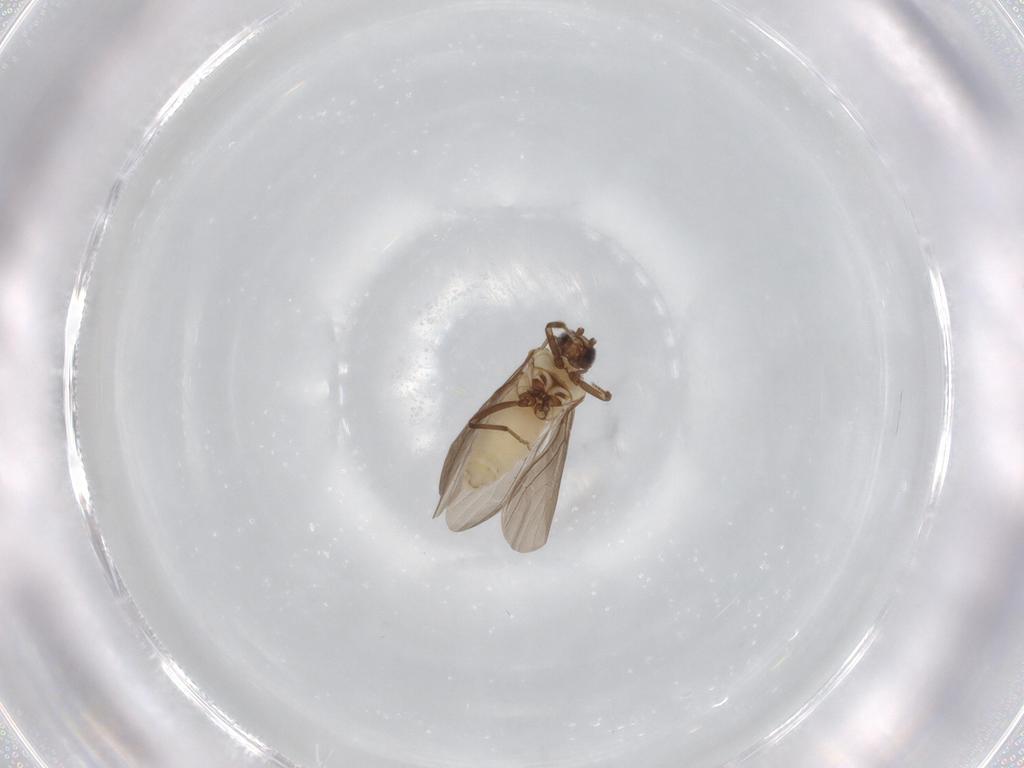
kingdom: Animalia
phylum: Arthropoda
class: Insecta
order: Neuroptera
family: Coniopterygidae
